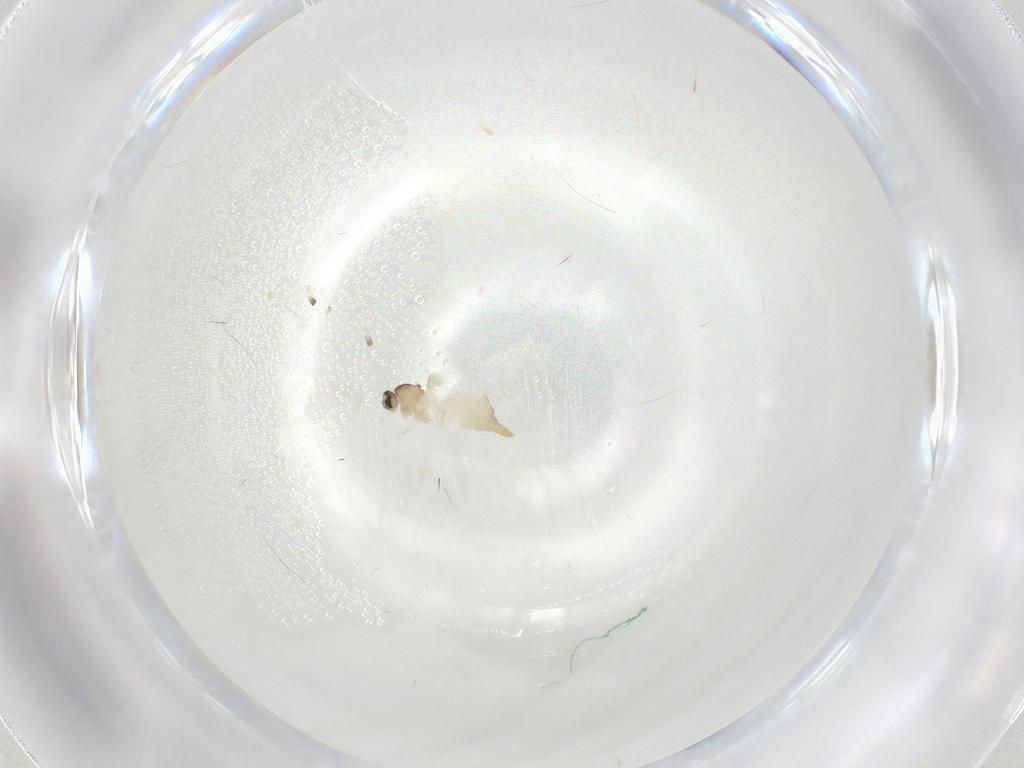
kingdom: Animalia
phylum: Arthropoda
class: Insecta
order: Diptera
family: Cecidomyiidae
